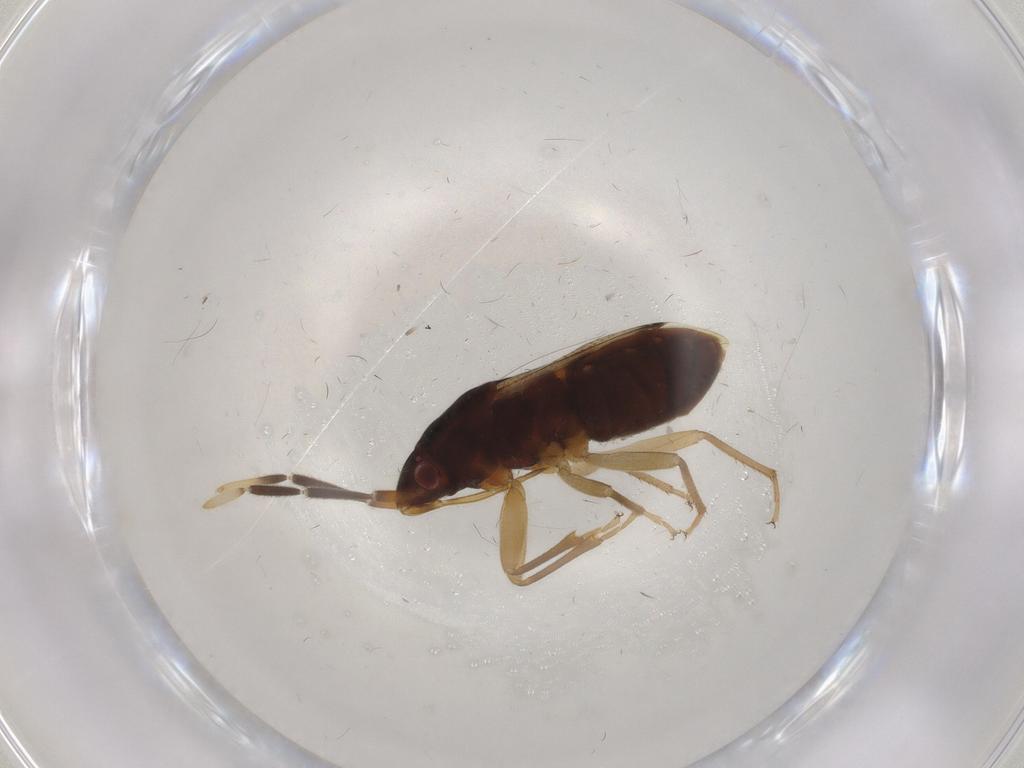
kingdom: Animalia
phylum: Arthropoda
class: Insecta
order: Hemiptera
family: Rhyparochromidae
